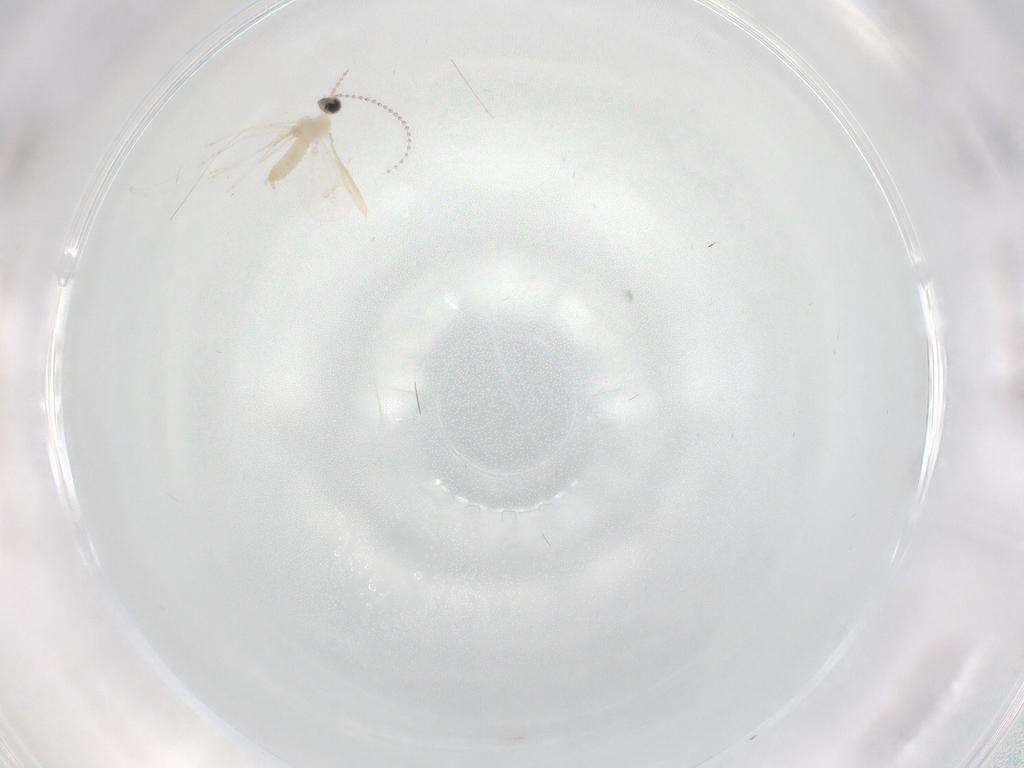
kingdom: Animalia
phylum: Arthropoda
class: Insecta
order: Diptera
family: Cecidomyiidae
